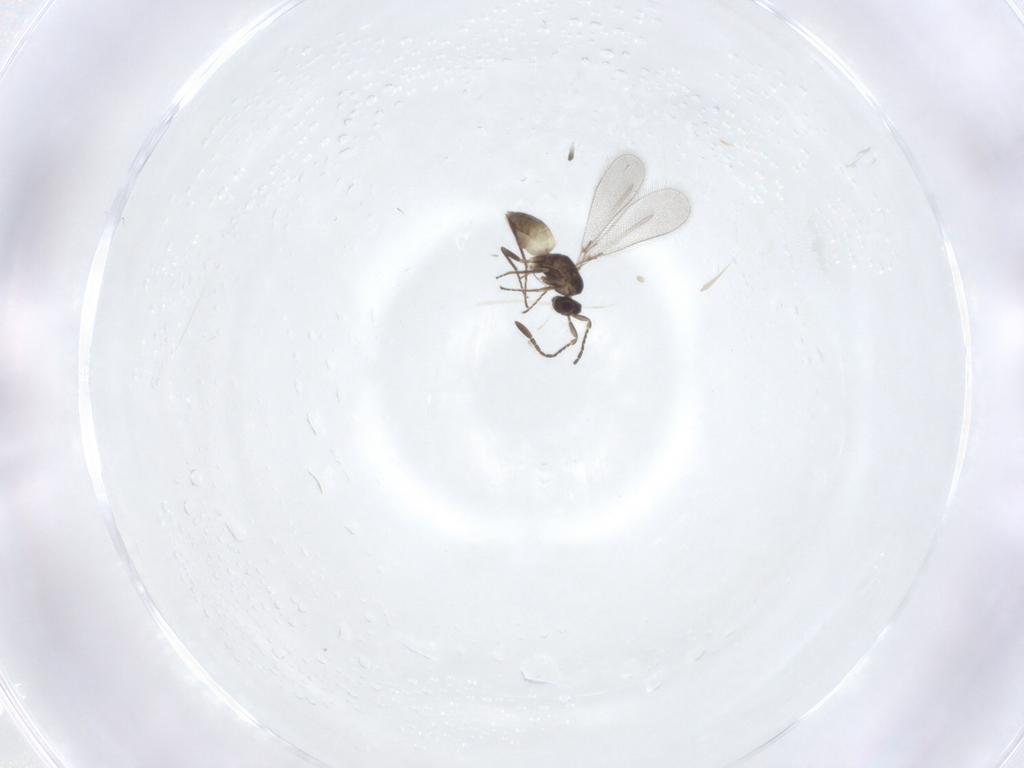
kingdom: Animalia
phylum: Arthropoda
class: Insecta
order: Hymenoptera
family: Mymaridae
